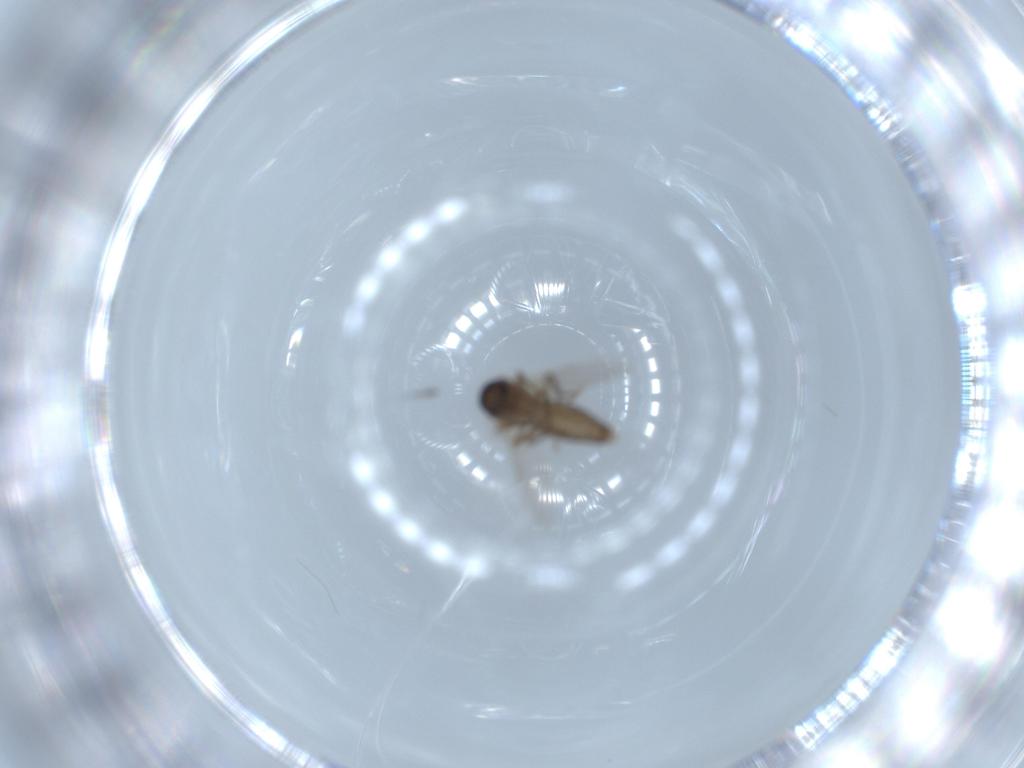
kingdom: Animalia
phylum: Arthropoda
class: Insecta
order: Diptera
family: Ceratopogonidae
